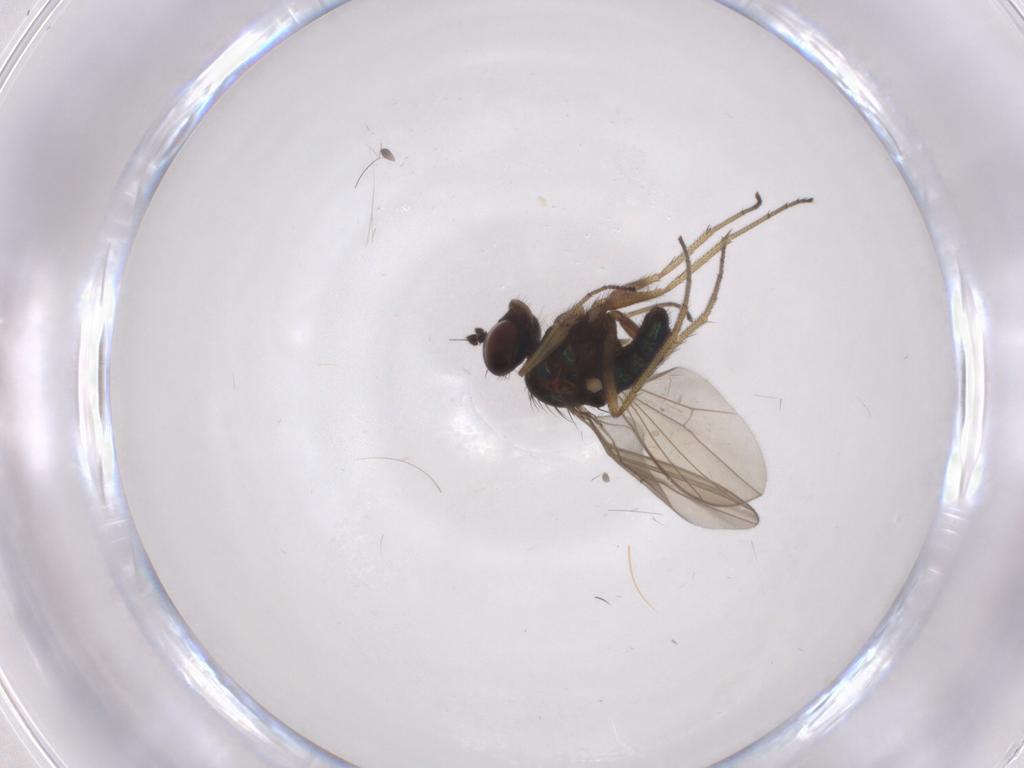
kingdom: Animalia
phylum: Arthropoda
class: Insecta
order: Diptera
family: Dolichopodidae
